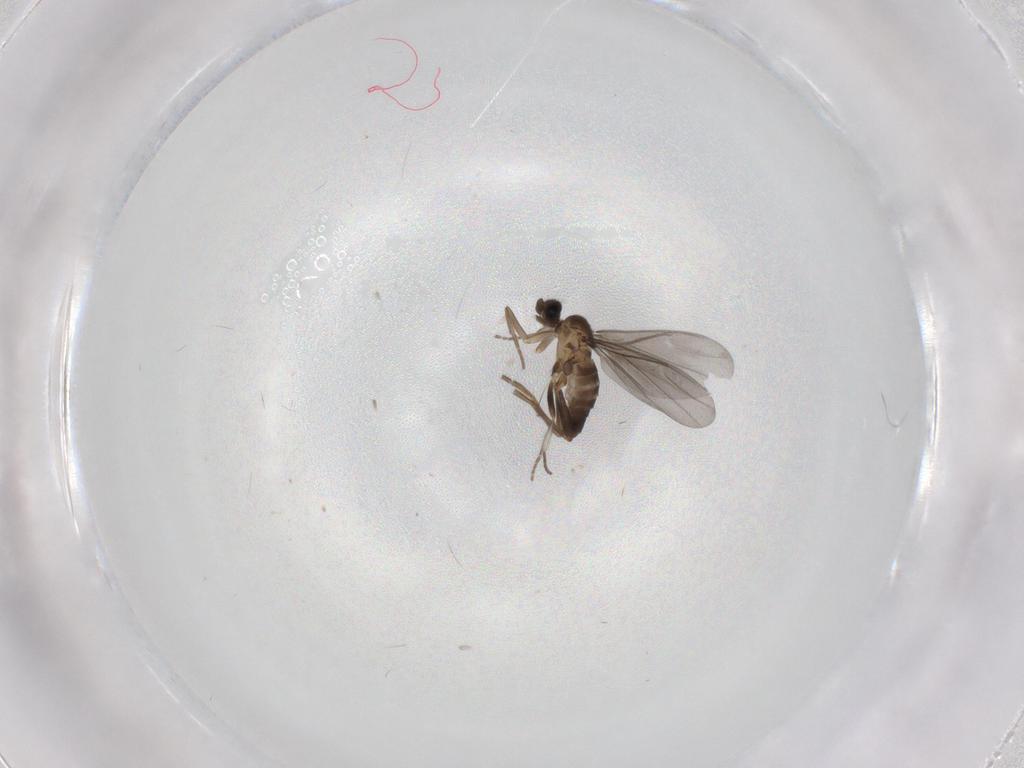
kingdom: Animalia
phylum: Arthropoda
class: Insecta
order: Diptera
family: Phoridae
